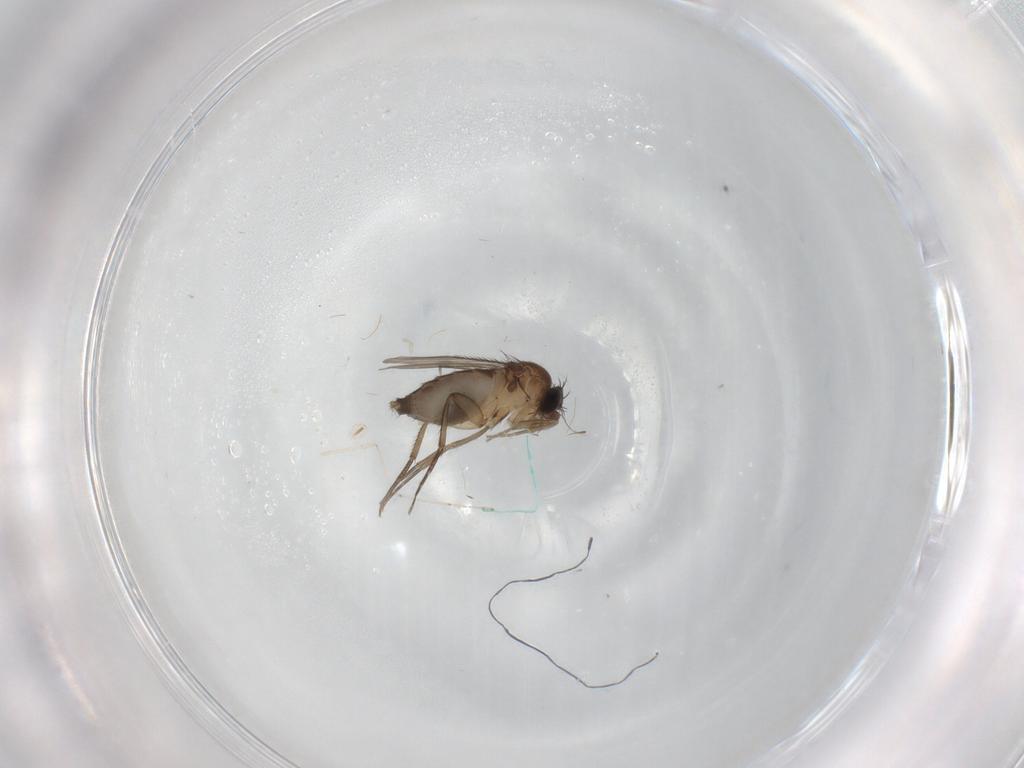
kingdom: Animalia
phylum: Arthropoda
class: Insecta
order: Diptera
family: Phoridae
